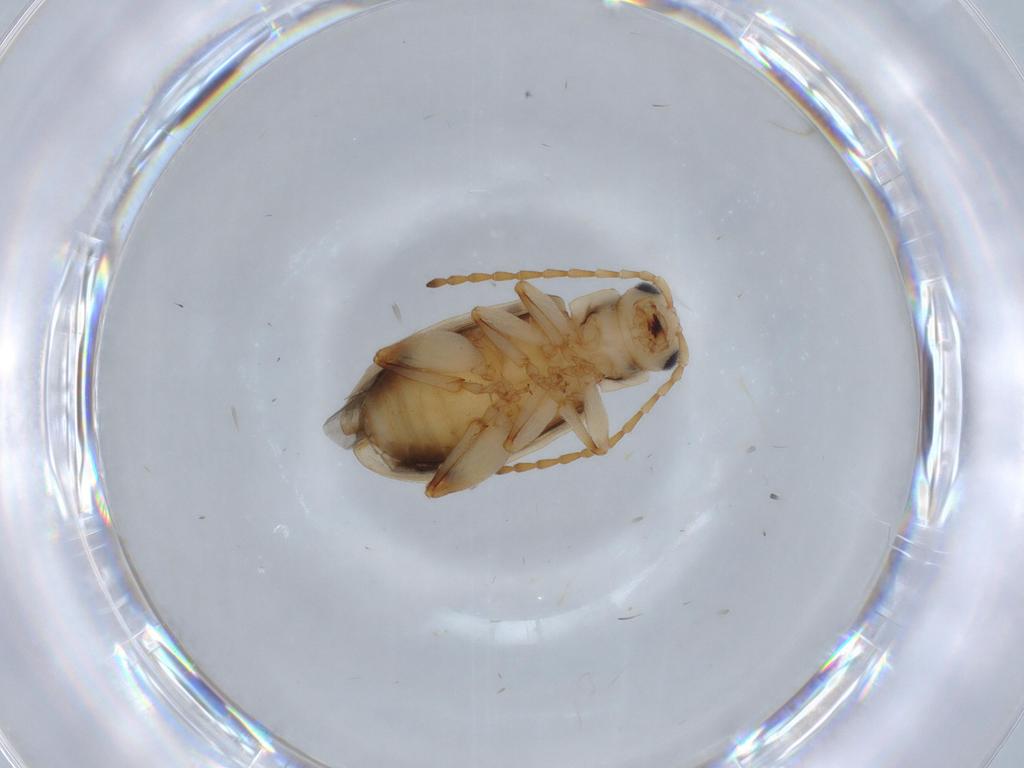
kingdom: Animalia
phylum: Arthropoda
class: Insecta
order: Coleoptera
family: Chrysomelidae
